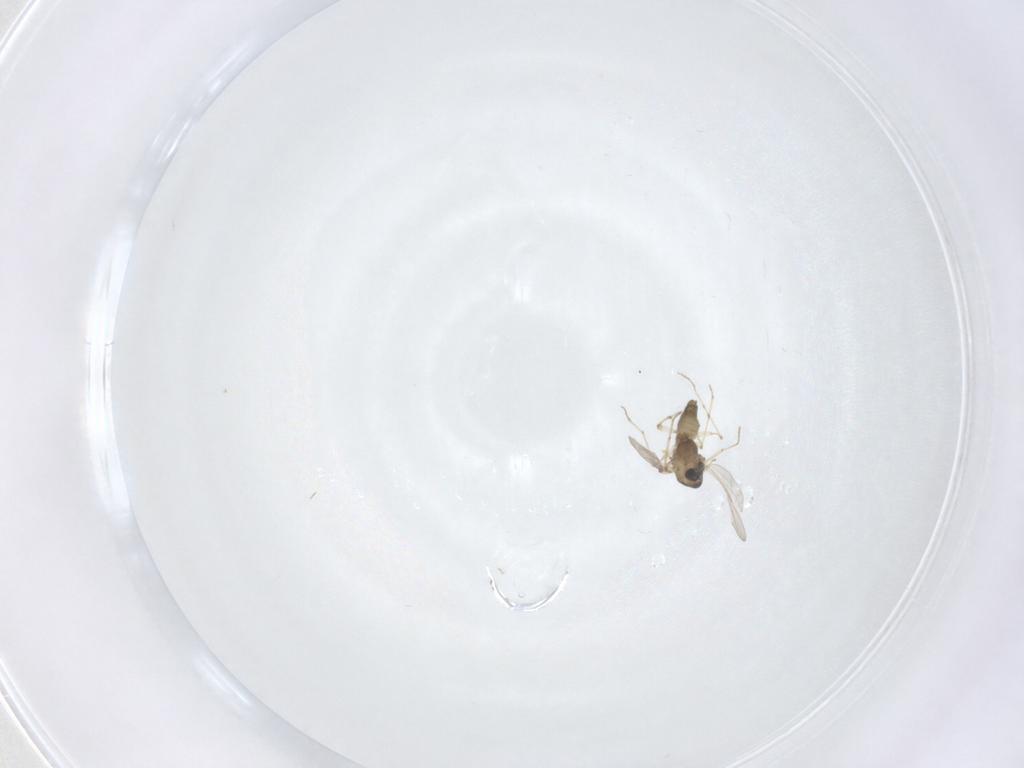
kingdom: Animalia
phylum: Arthropoda
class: Insecta
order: Diptera
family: Chironomidae
